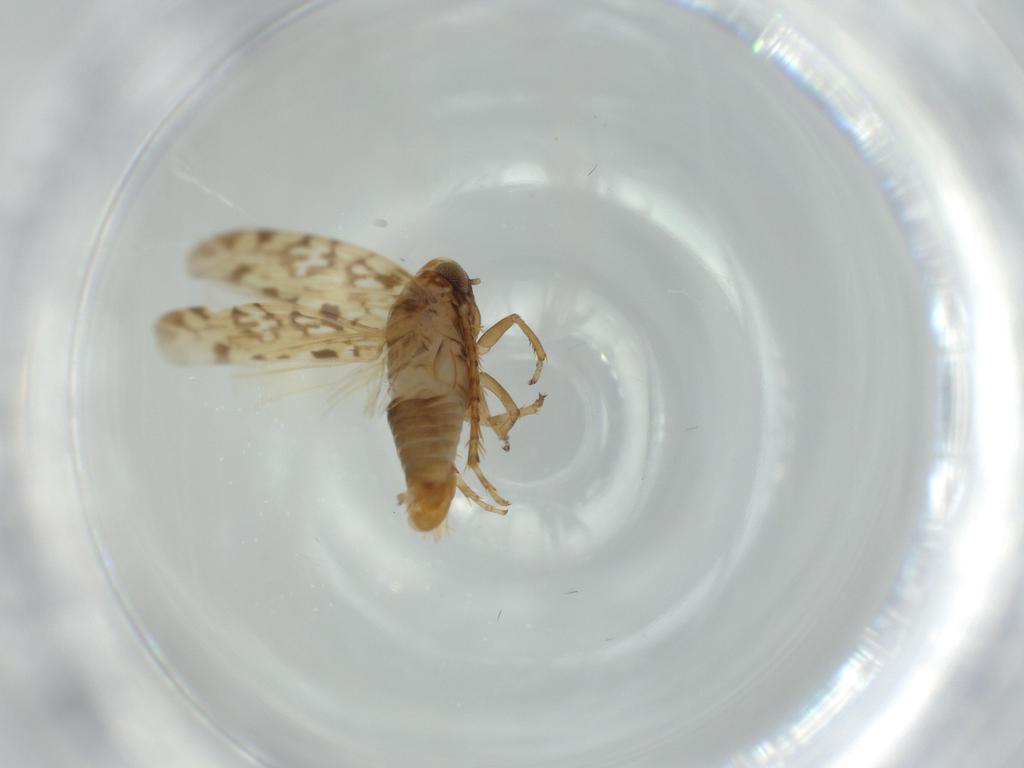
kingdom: Animalia
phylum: Arthropoda
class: Insecta
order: Hemiptera
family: Cicadellidae
